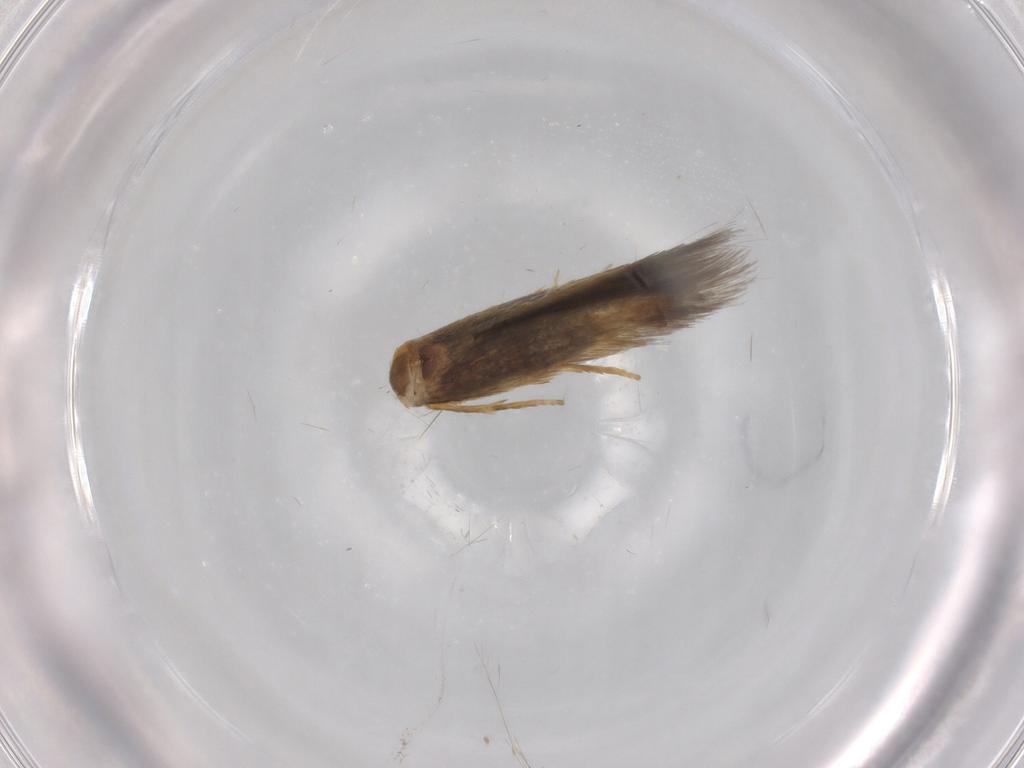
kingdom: Animalia
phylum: Arthropoda
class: Insecta
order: Lepidoptera
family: Nepticulidae
